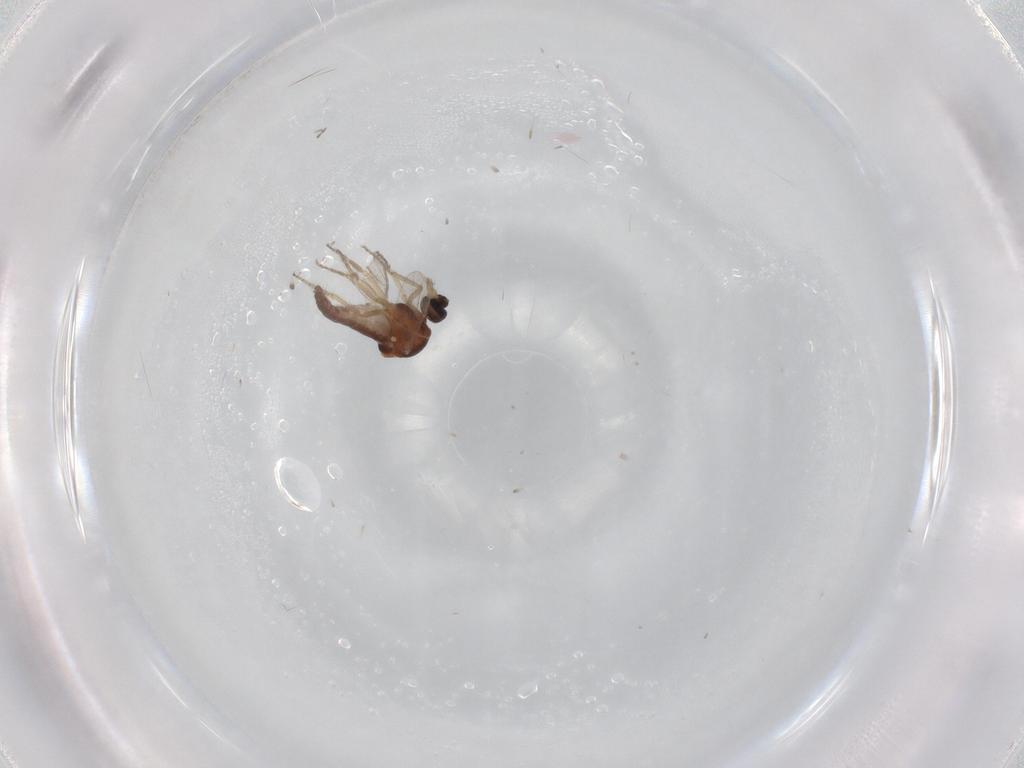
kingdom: Animalia
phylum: Arthropoda
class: Insecta
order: Diptera
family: Ceratopogonidae
